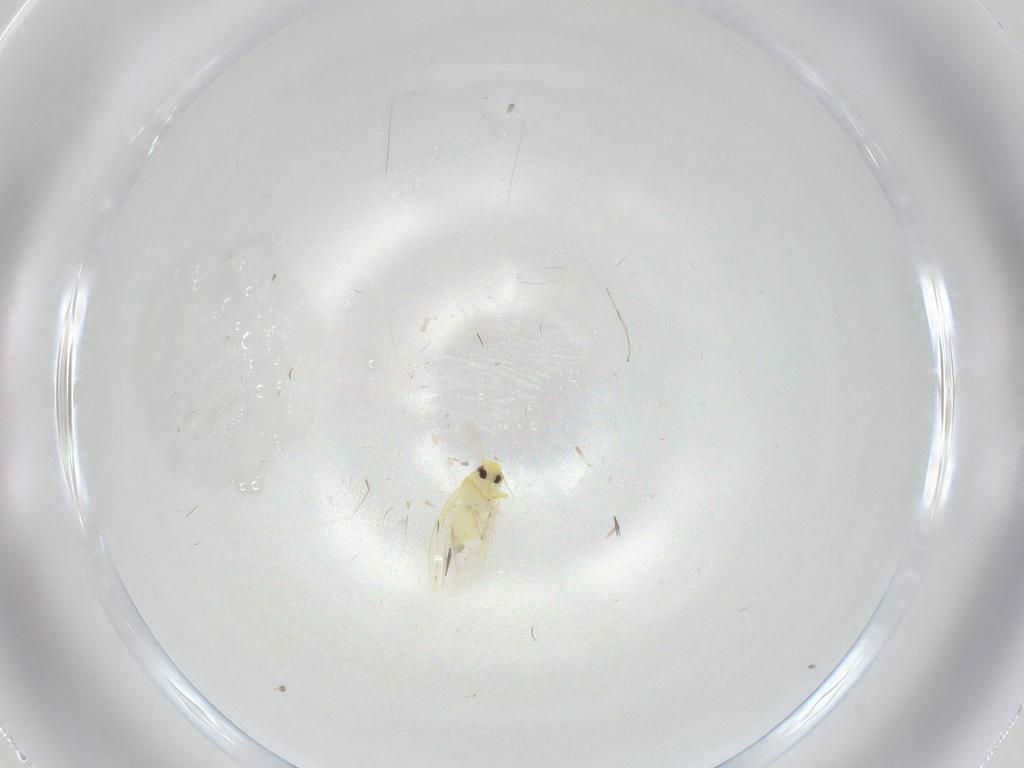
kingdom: Animalia
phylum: Arthropoda
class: Insecta
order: Hemiptera
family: Aleyrodidae
